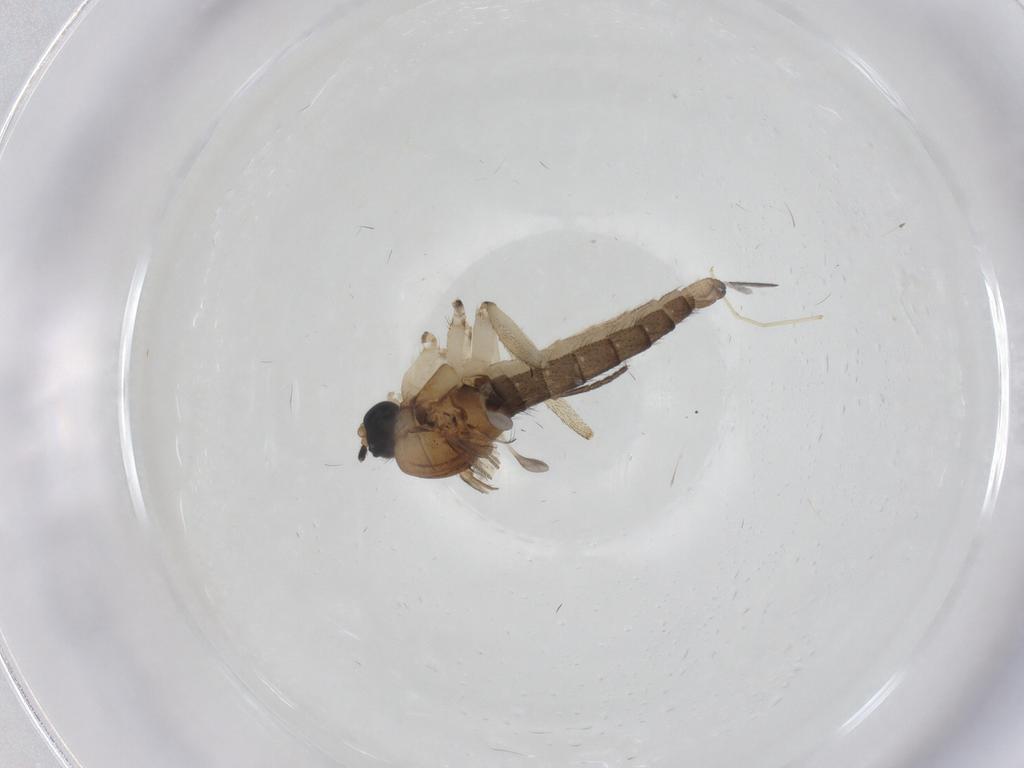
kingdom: Animalia
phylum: Arthropoda
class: Insecta
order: Diptera
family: Sciaridae
